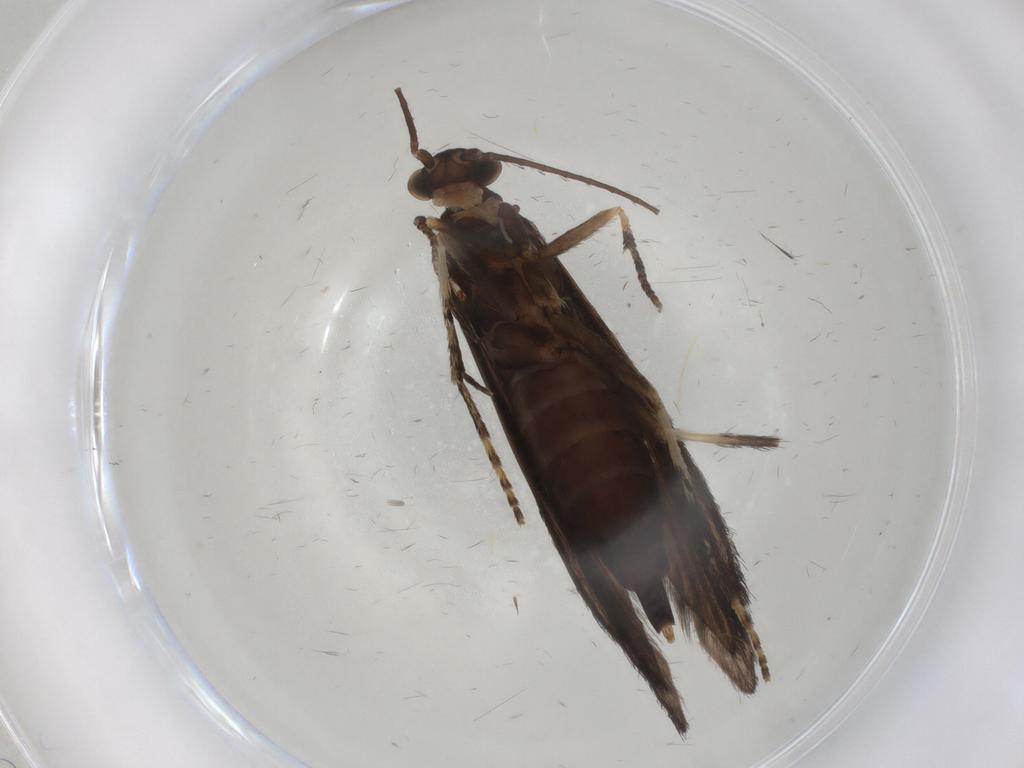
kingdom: Animalia
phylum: Arthropoda
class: Insecta
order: Trichoptera
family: Xiphocentronidae
